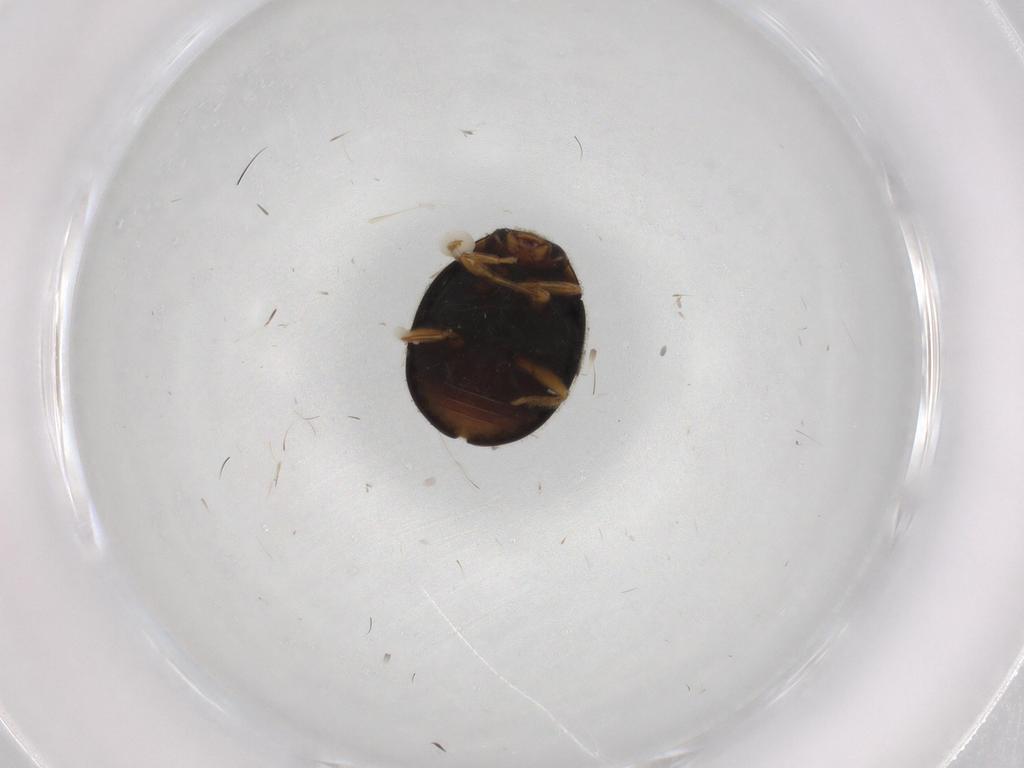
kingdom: Animalia
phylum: Arthropoda
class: Insecta
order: Coleoptera
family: Coccinellidae
